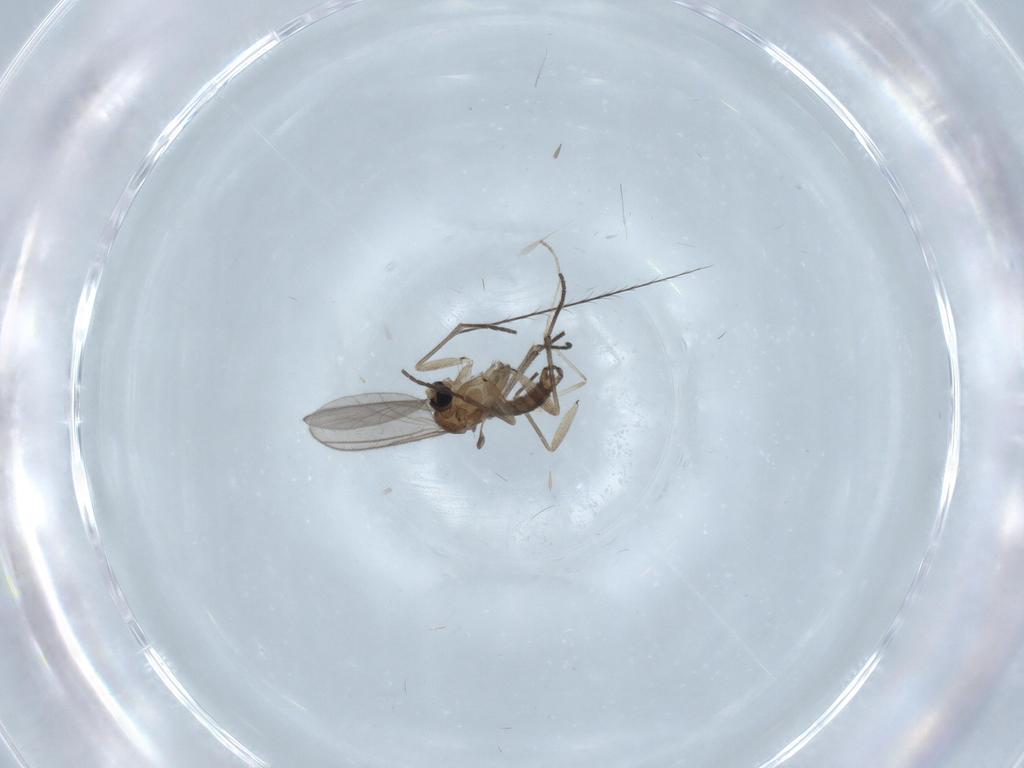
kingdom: Animalia
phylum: Arthropoda
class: Insecta
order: Diptera
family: Sciaridae
